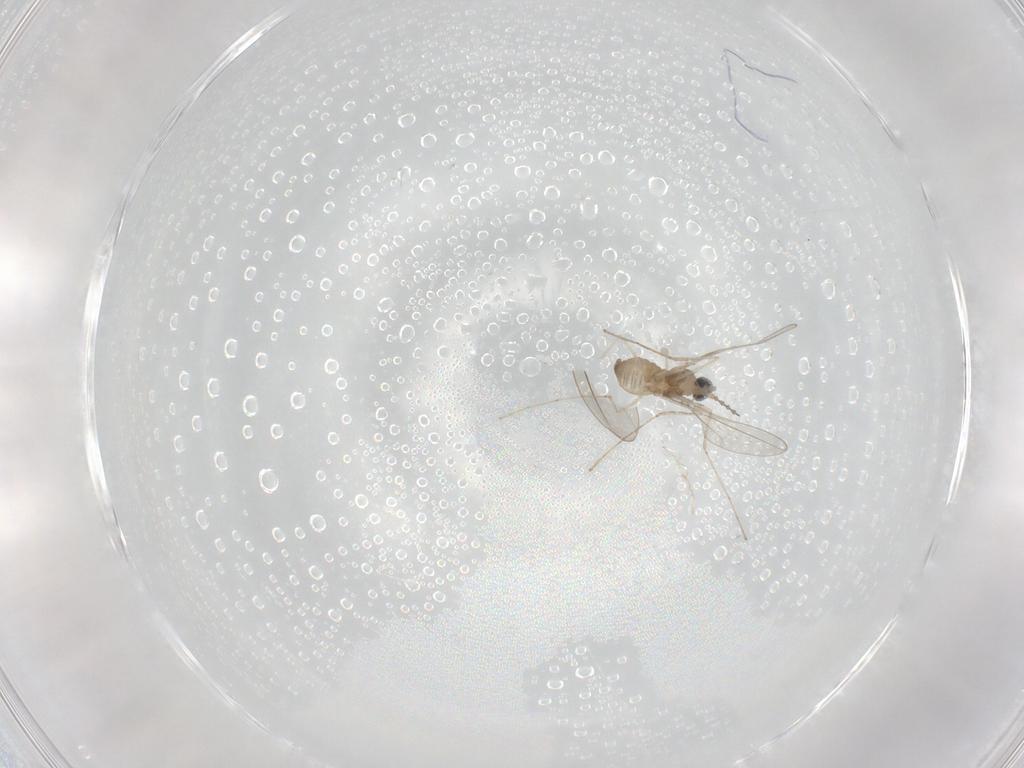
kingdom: Animalia
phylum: Arthropoda
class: Insecta
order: Diptera
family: Cecidomyiidae
